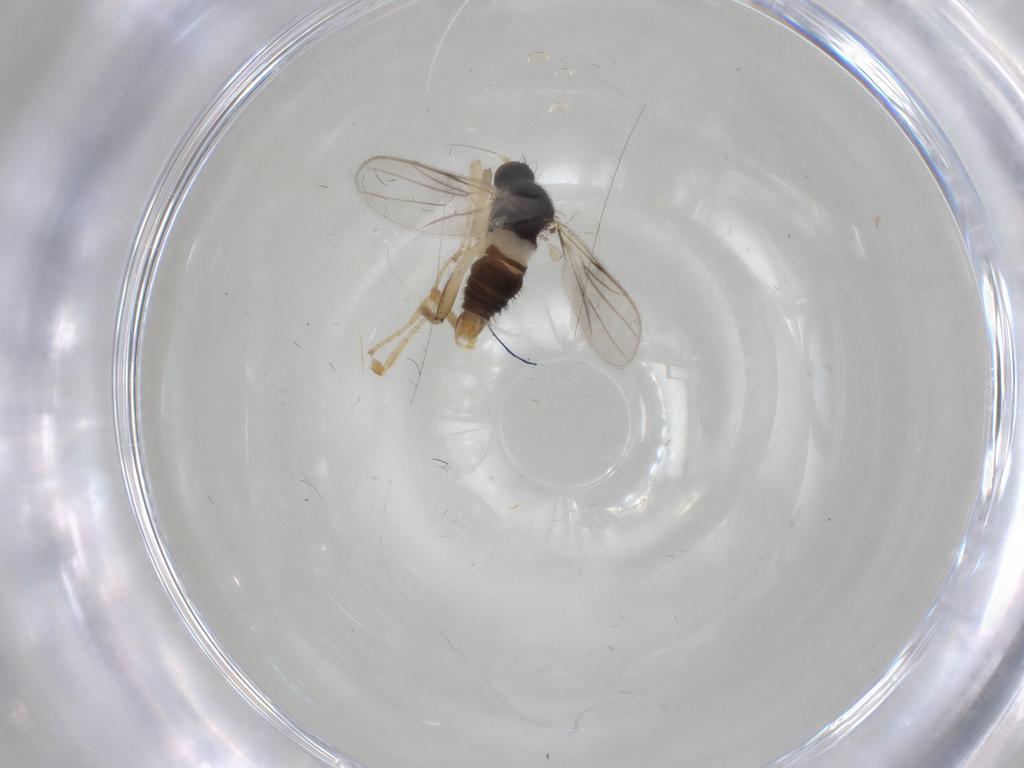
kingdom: Animalia
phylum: Arthropoda
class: Insecta
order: Diptera
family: Hybotidae
